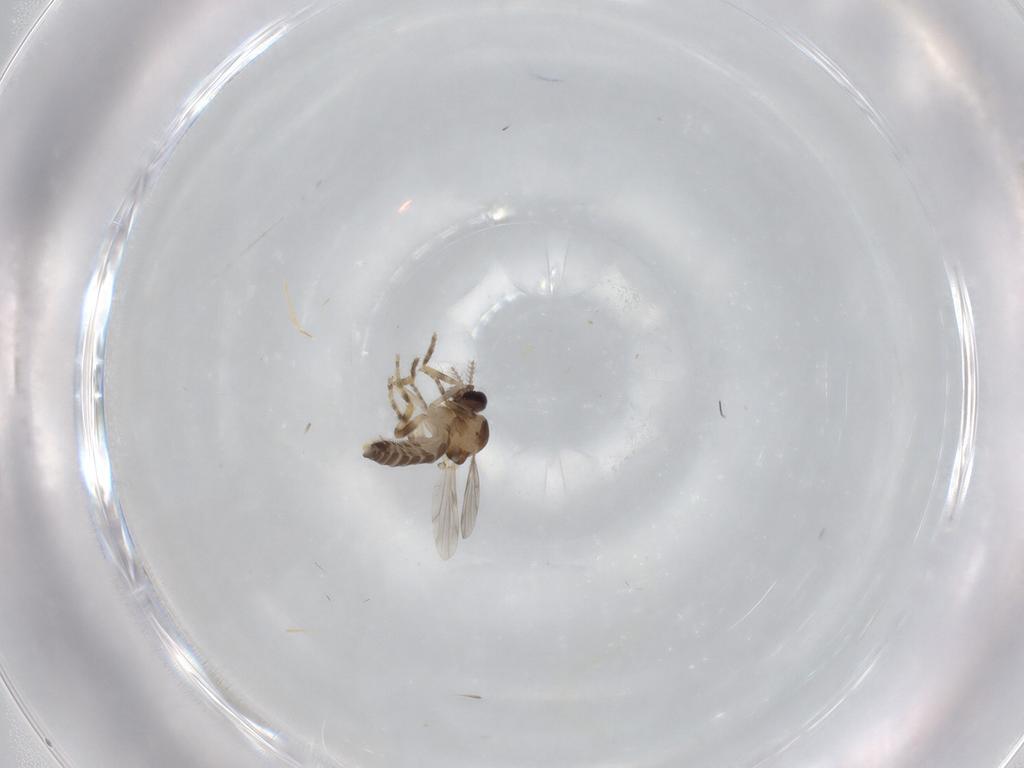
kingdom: Animalia
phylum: Arthropoda
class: Insecta
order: Diptera
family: Ceratopogonidae
